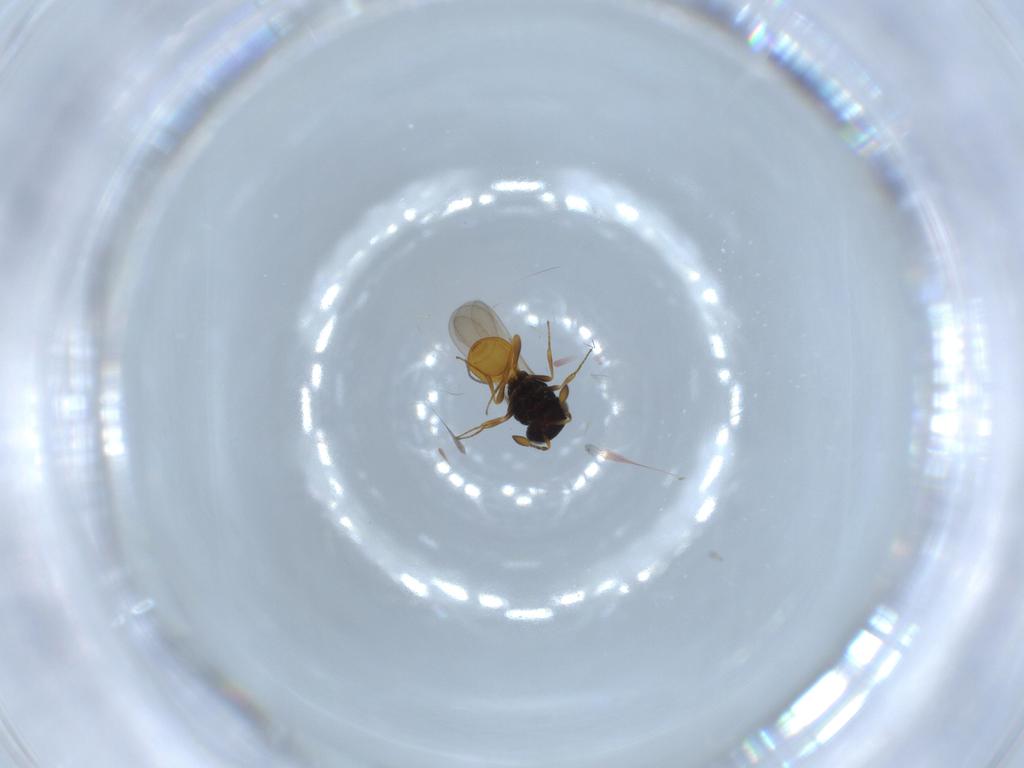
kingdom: Animalia
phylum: Arthropoda
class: Insecta
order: Hymenoptera
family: Scelionidae
